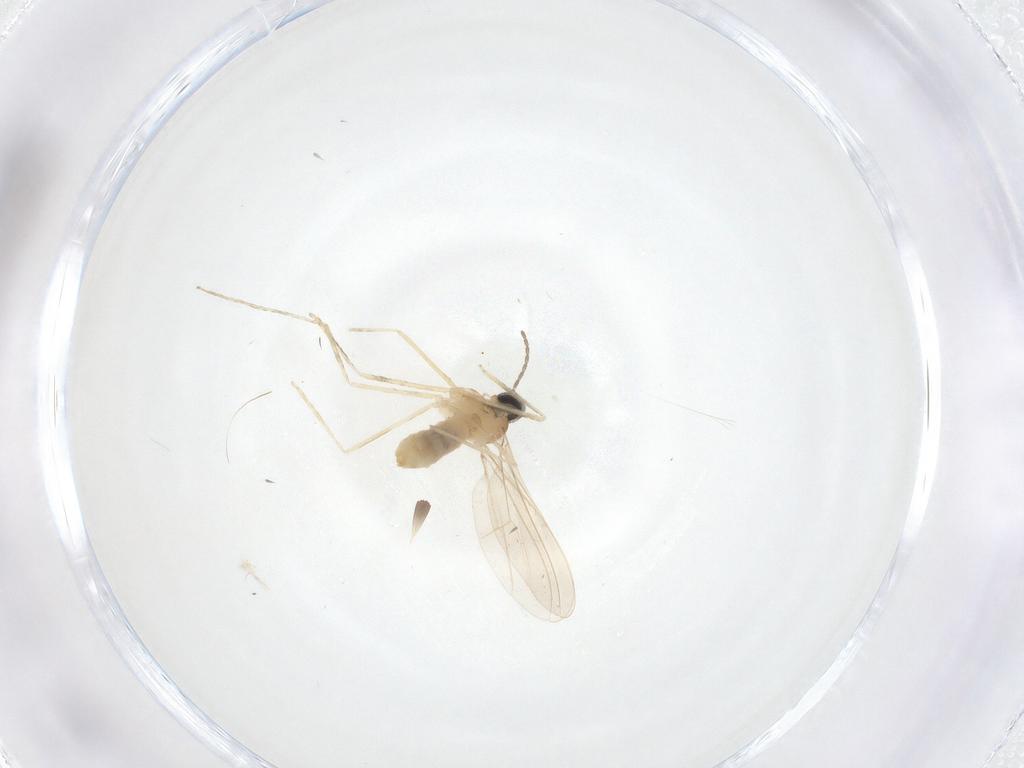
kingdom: Animalia
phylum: Arthropoda
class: Insecta
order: Diptera
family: Cecidomyiidae
